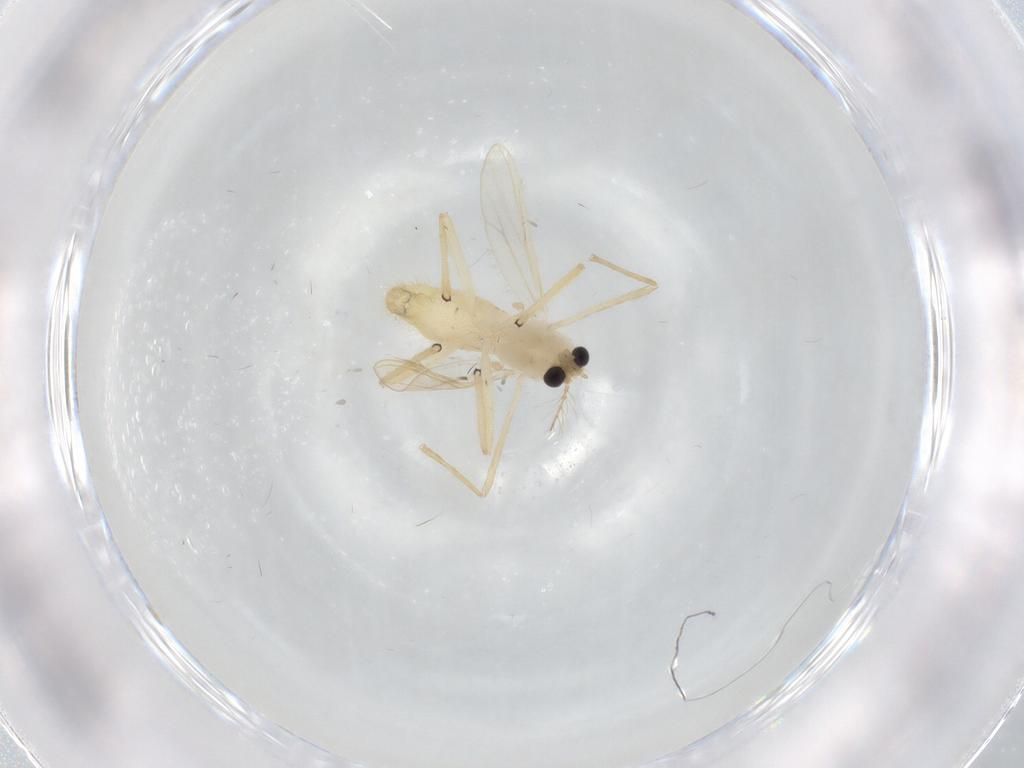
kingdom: Animalia
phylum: Arthropoda
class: Insecta
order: Diptera
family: Chironomidae
